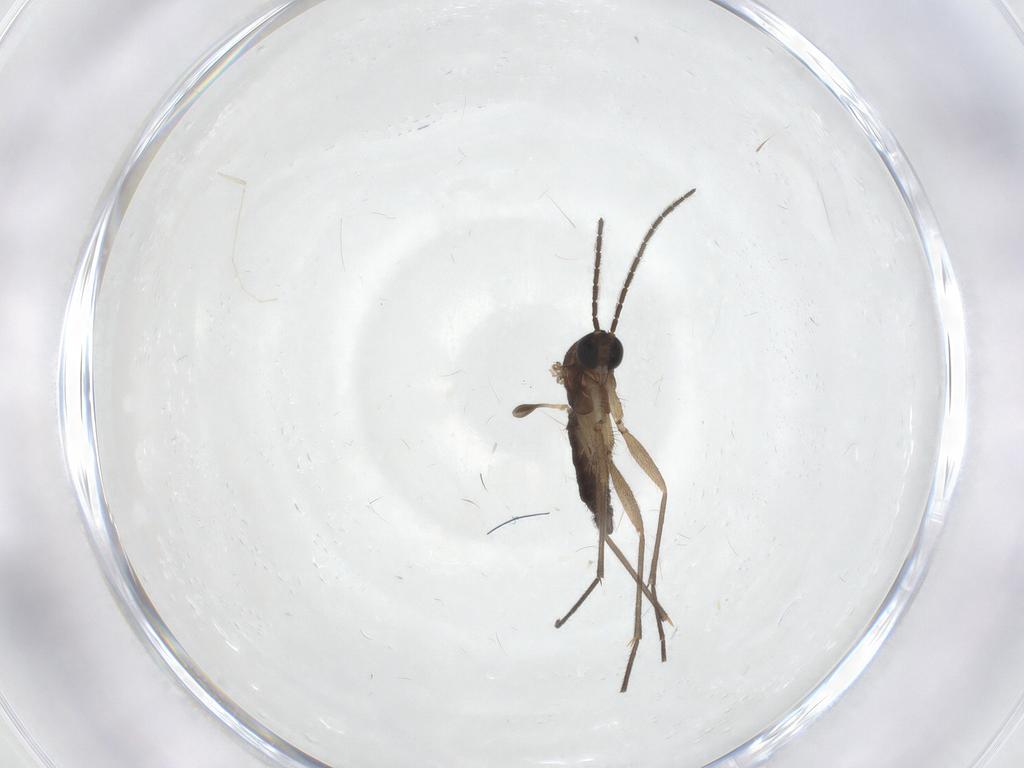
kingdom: Animalia
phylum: Arthropoda
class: Insecta
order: Diptera
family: Sciaridae
